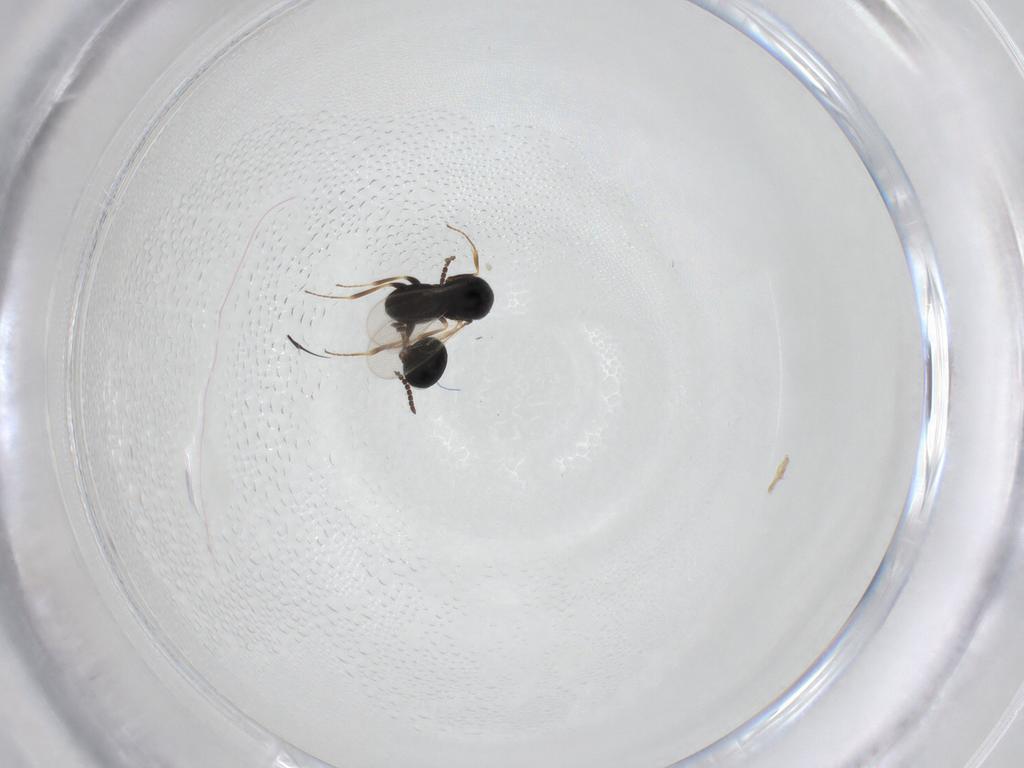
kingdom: Animalia
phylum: Arthropoda
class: Insecta
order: Hymenoptera
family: Scelionidae
